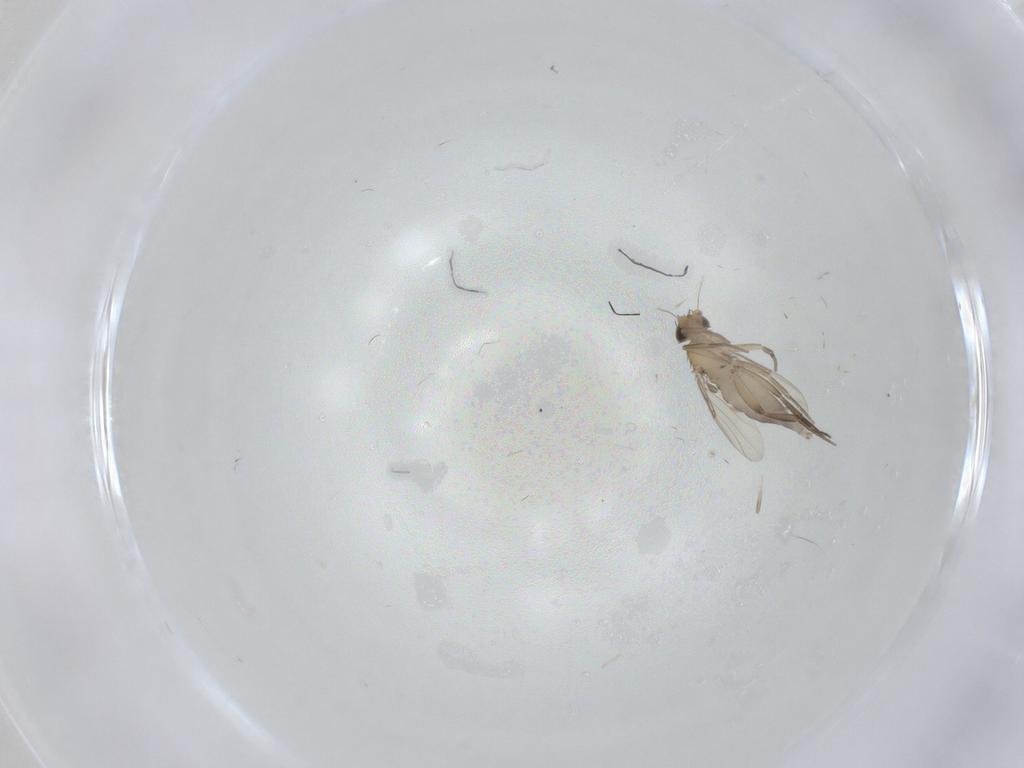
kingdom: Animalia
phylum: Arthropoda
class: Insecta
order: Diptera
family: Phoridae
